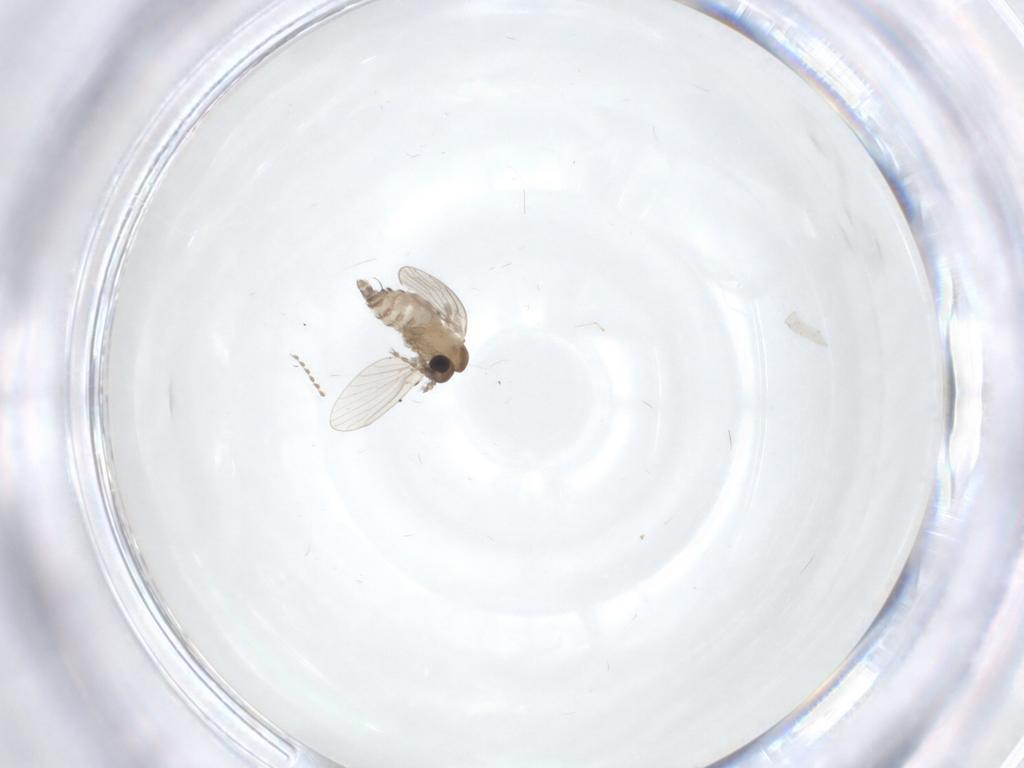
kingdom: Animalia
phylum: Arthropoda
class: Insecta
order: Diptera
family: Psychodidae
